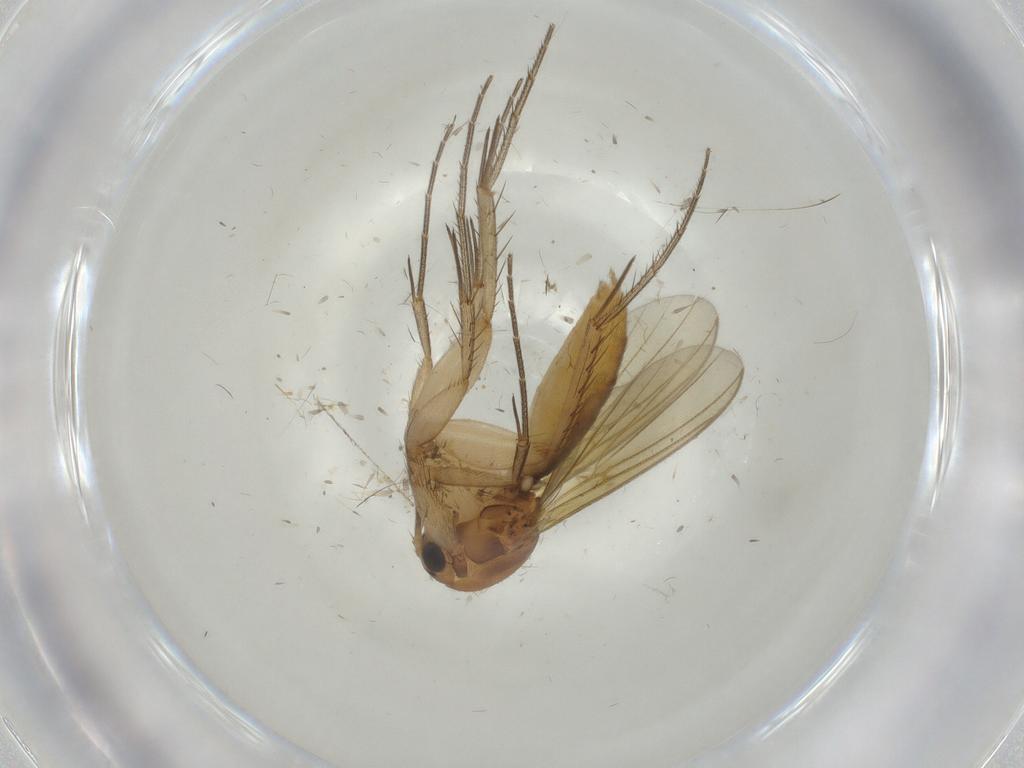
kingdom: Animalia
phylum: Arthropoda
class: Insecta
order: Diptera
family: Mycetophilidae
